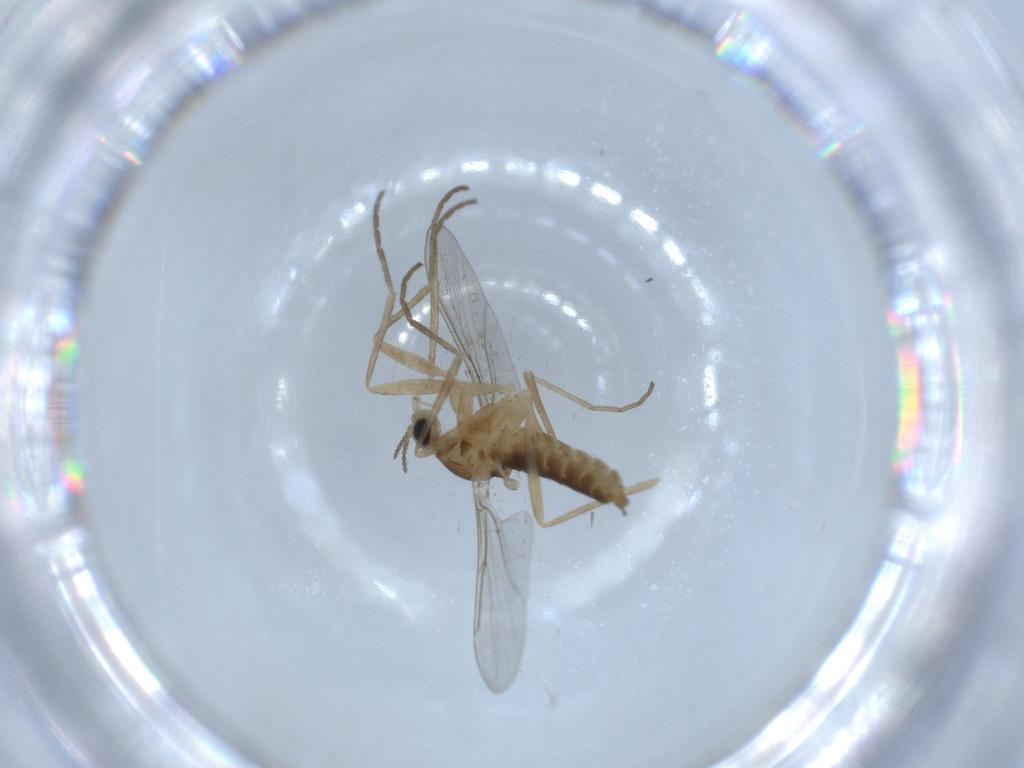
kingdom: Animalia
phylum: Arthropoda
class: Insecta
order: Diptera
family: Cecidomyiidae
